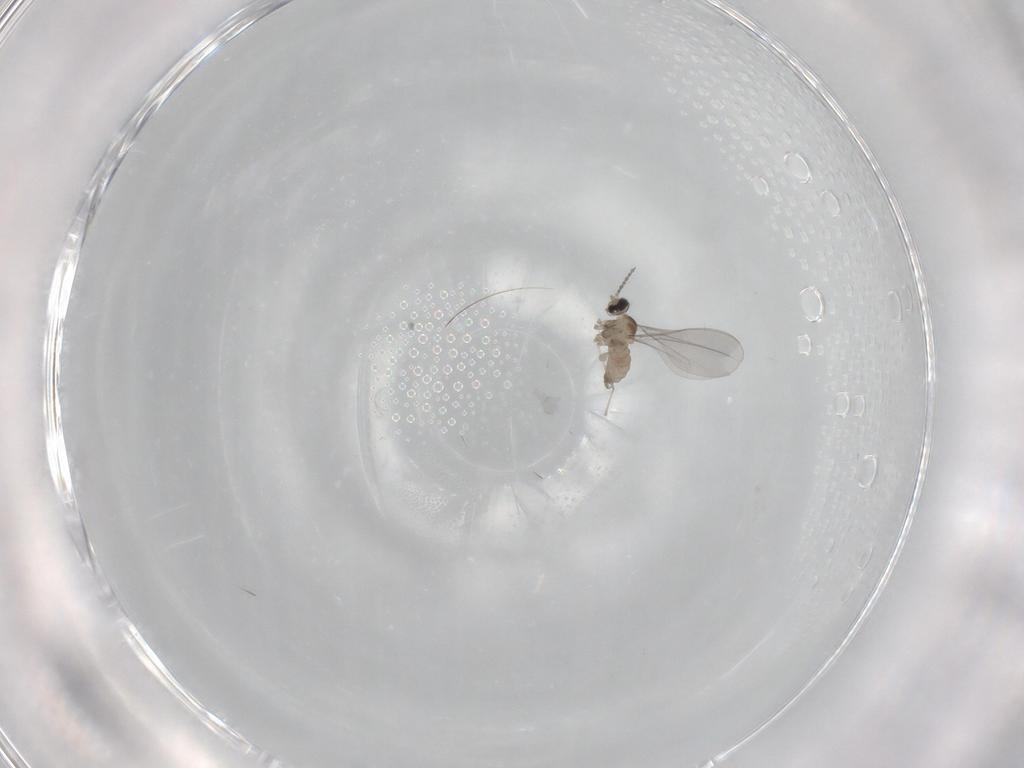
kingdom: Animalia
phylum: Arthropoda
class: Insecta
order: Diptera
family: Cecidomyiidae
